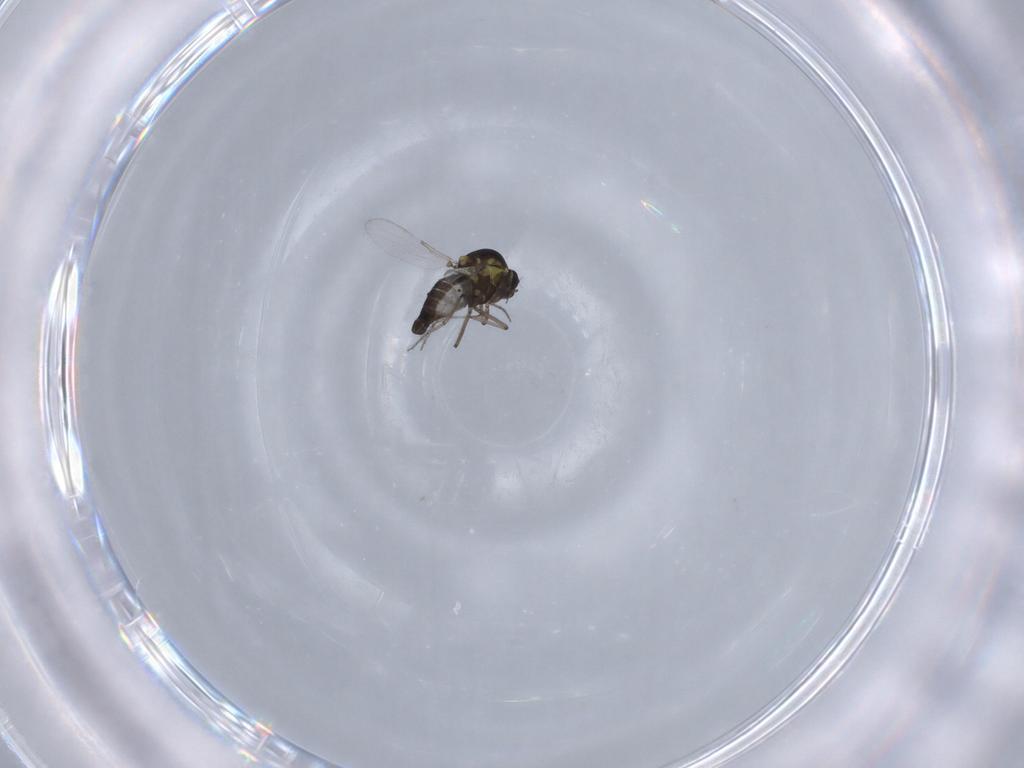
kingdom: Animalia
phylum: Arthropoda
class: Insecta
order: Diptera
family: Ceratopogonidae
